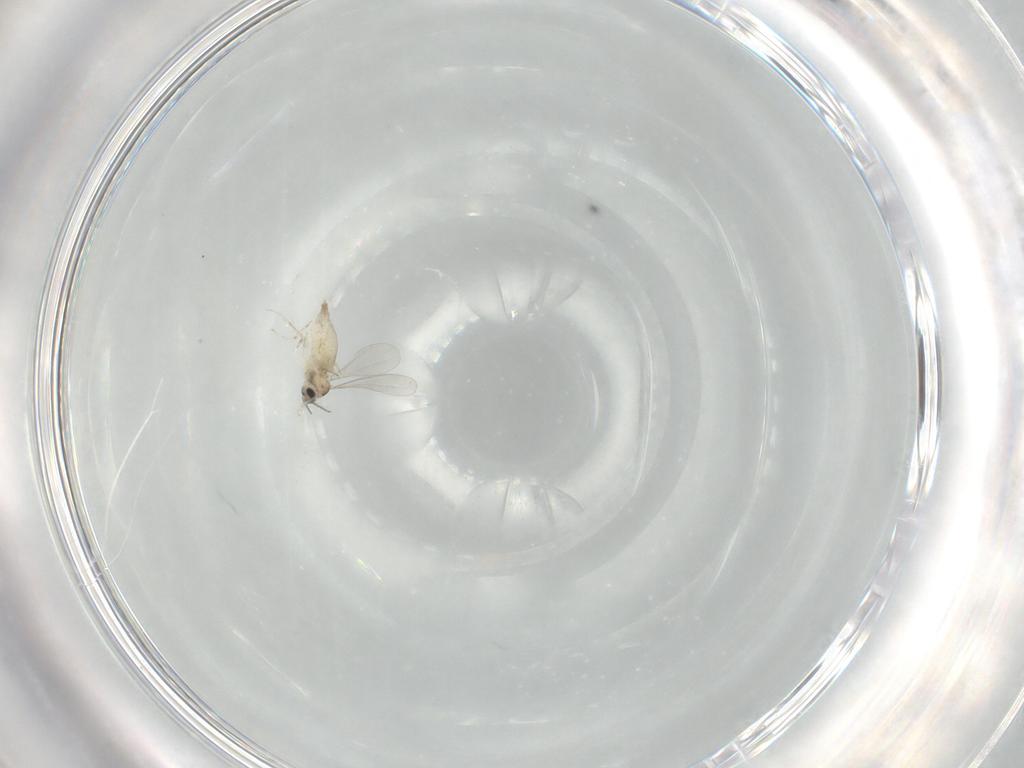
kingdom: Animalia
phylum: Arthropoda
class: Insecta
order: Diptera
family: Cecidomyiidae
